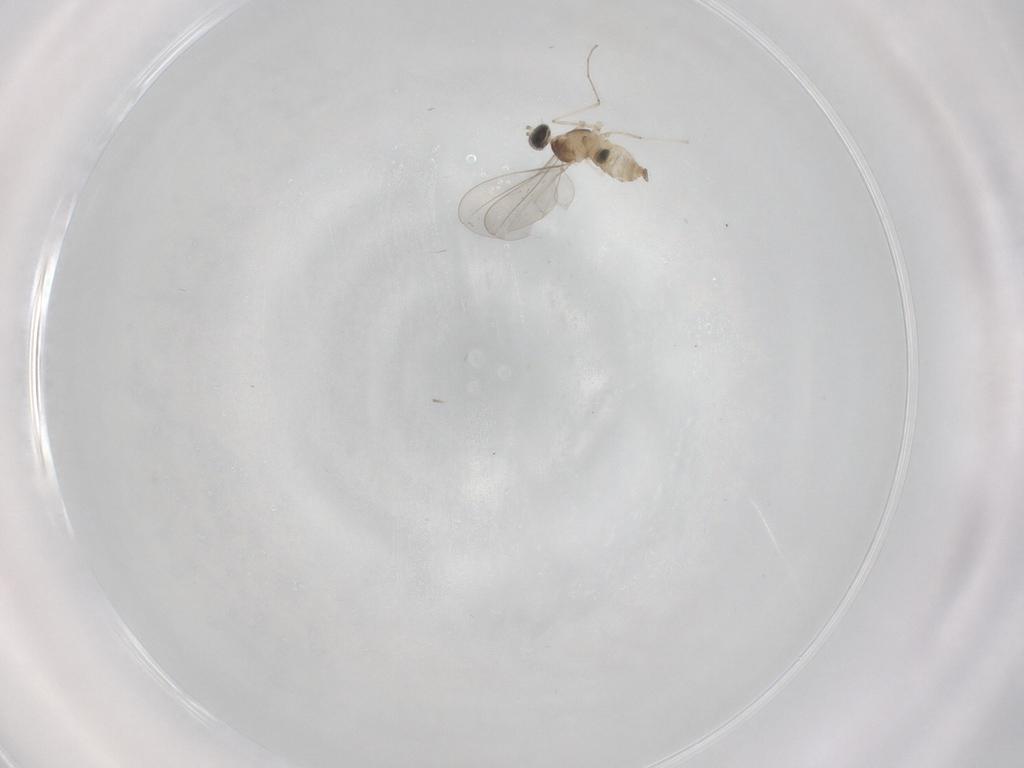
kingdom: Animalia
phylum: Arthropoda
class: Insecta
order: Diptera
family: Cecidomyiidae
